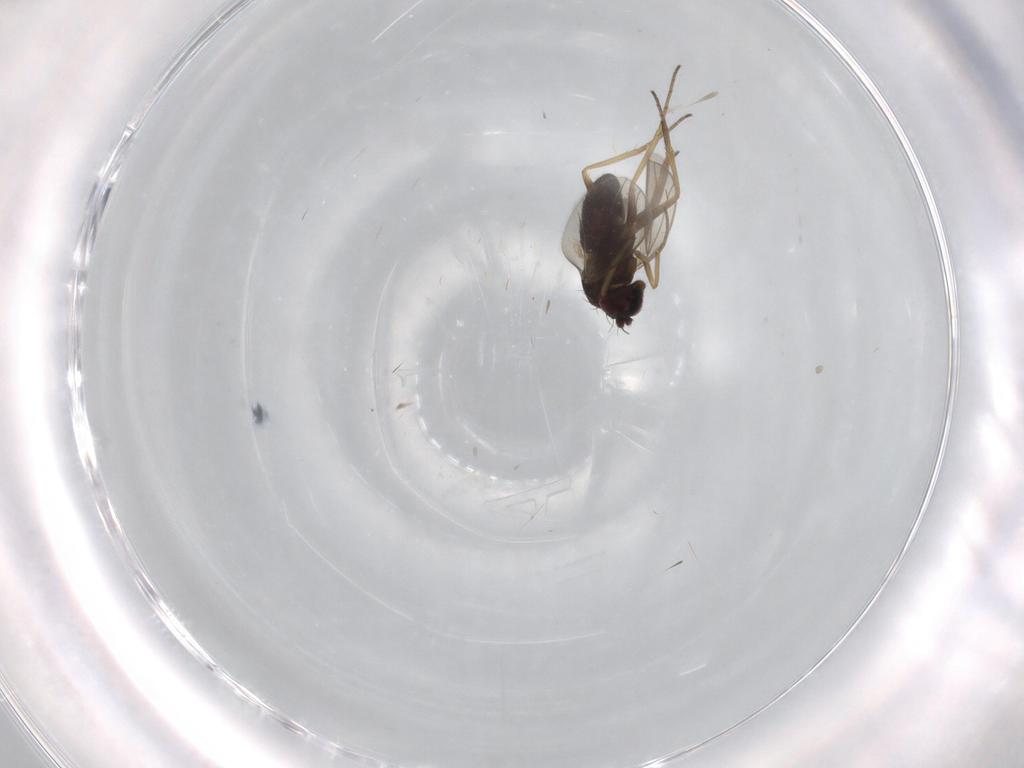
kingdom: Animalia
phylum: Arthropoda
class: Insecta
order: Diptera
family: Dolichopodidae
